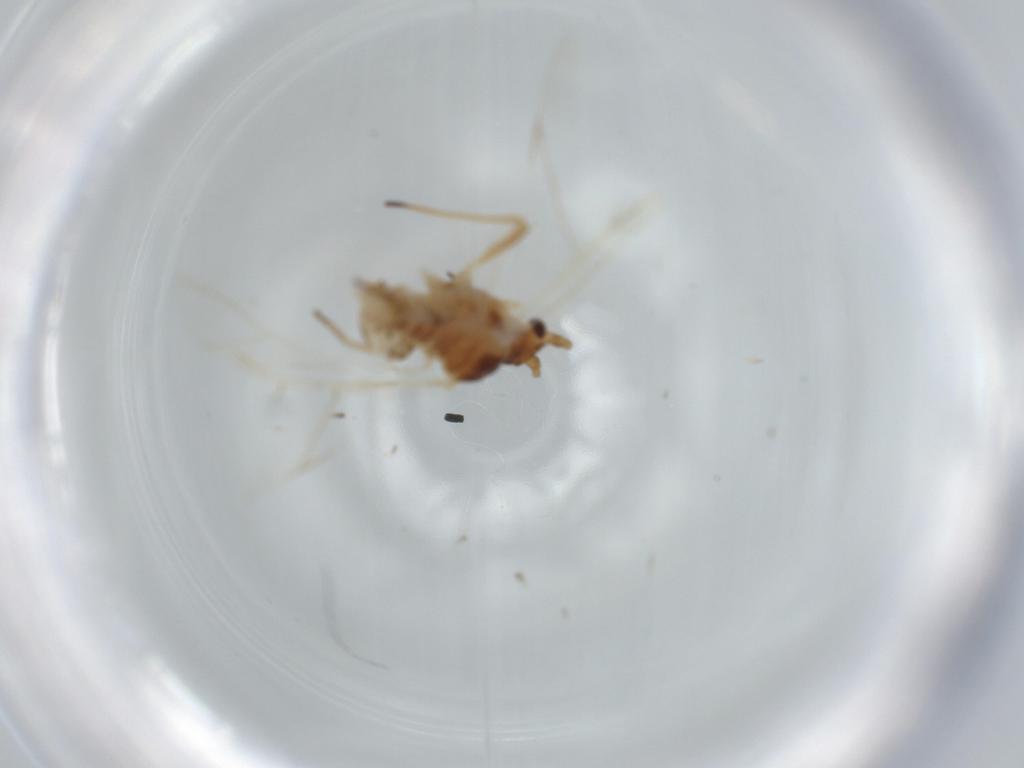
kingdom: Animalia
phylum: Arthropoda
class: Insecta
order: Hemiptera
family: Aphididae
